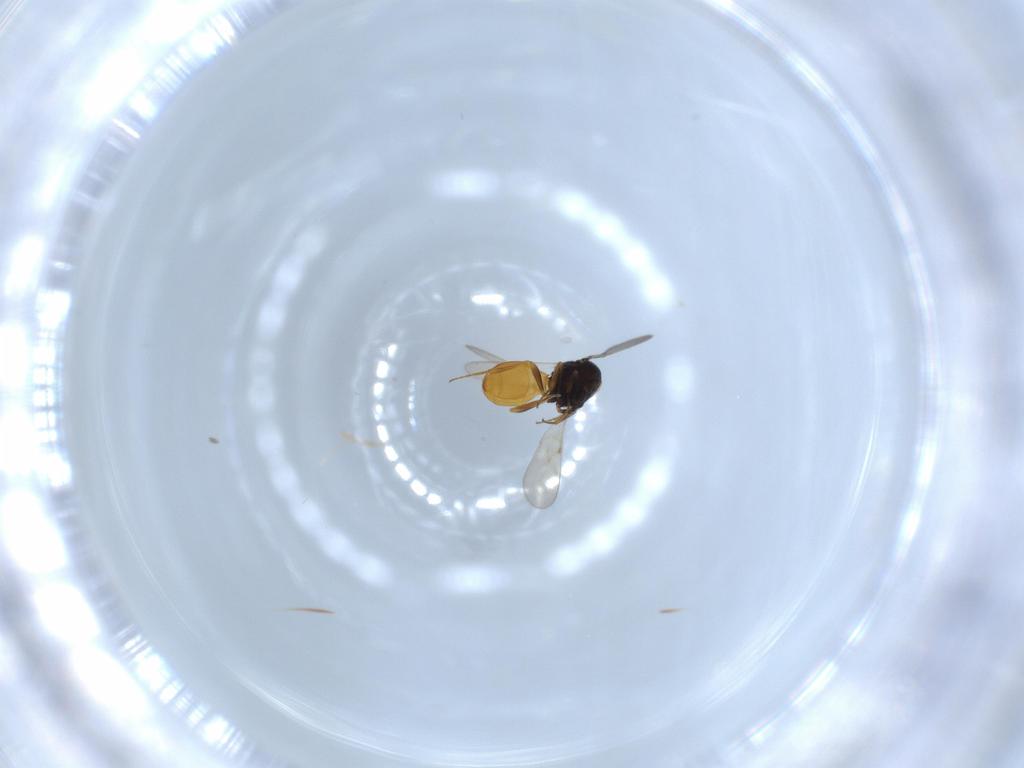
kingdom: Animalia
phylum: Arthropoda
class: Insecta
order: Hymenoptera
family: Scelionidae
